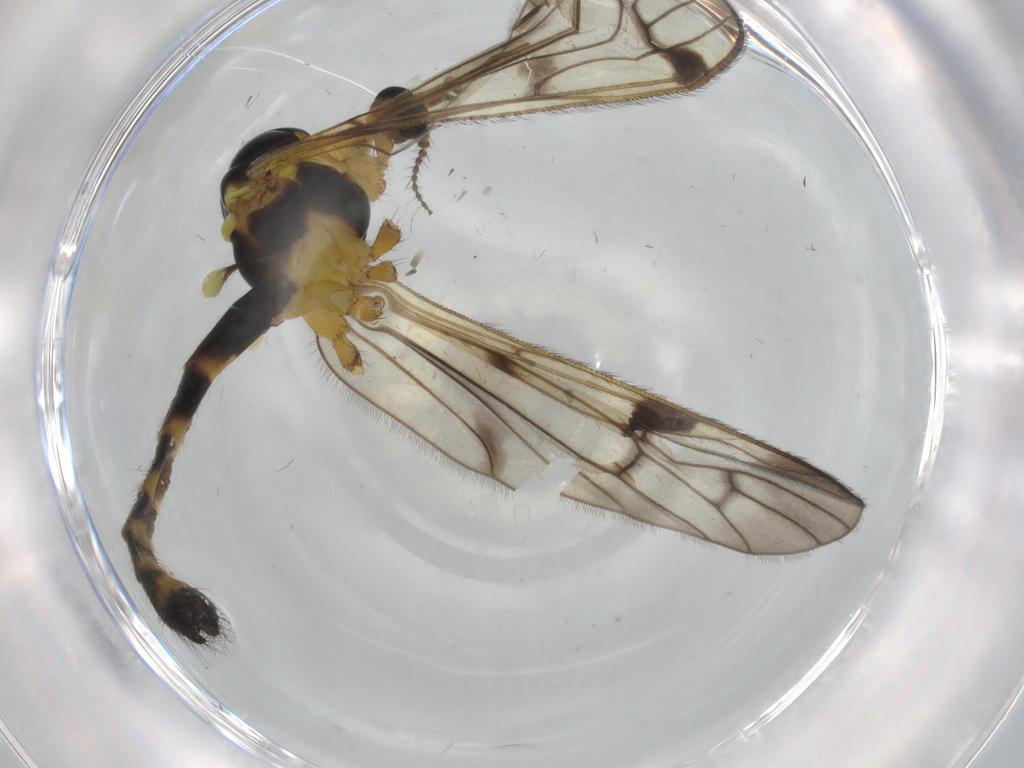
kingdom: Animalia
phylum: Arthropoda
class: Insecta
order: Diptera
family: Limoniidae
